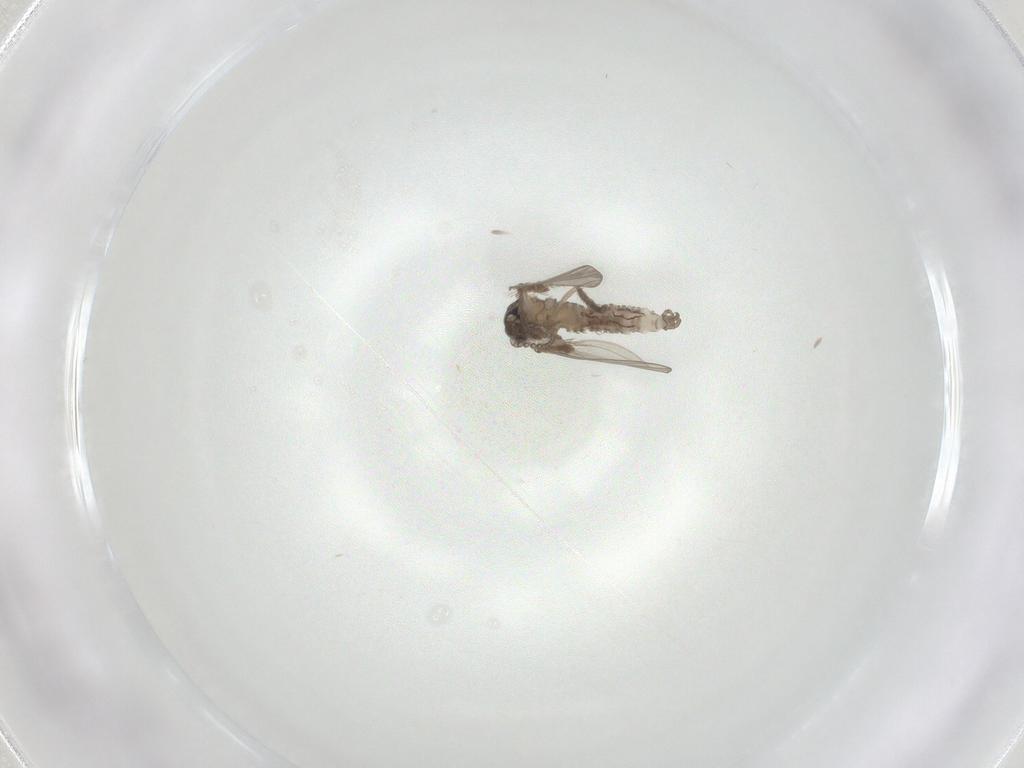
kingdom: Animalia
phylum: Arthropoda
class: Insecta
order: Diptera
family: Psychodidae
